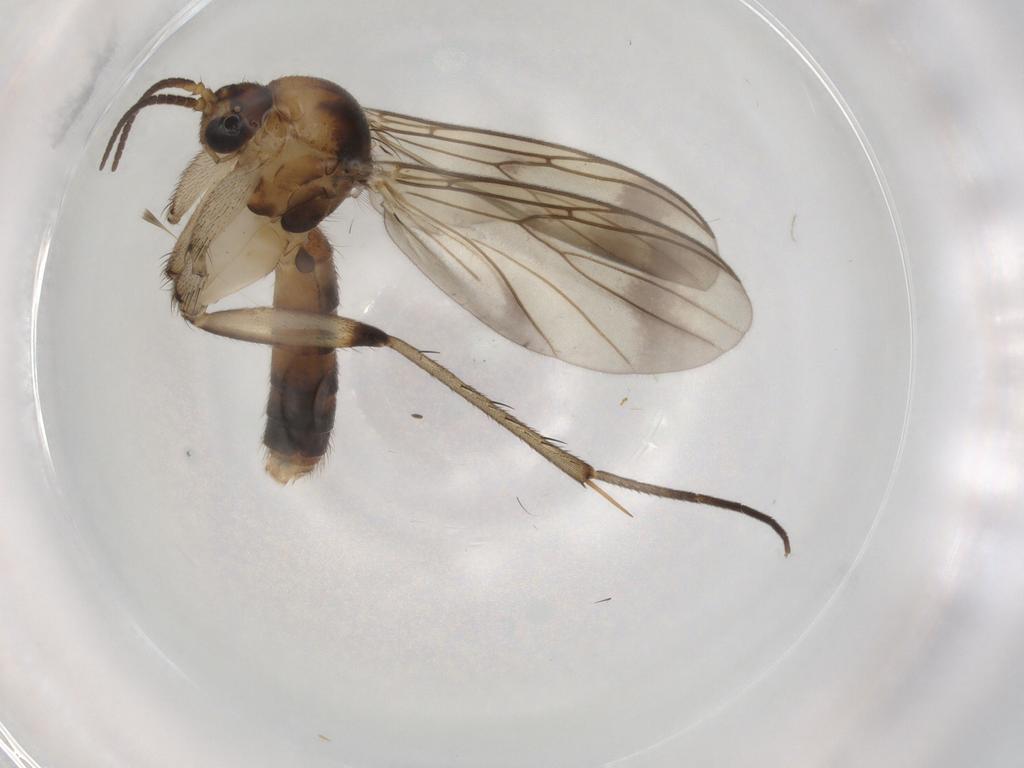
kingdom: Animalia
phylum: Arthropoda
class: Insecta
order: Diptera
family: Mycetophilidae
